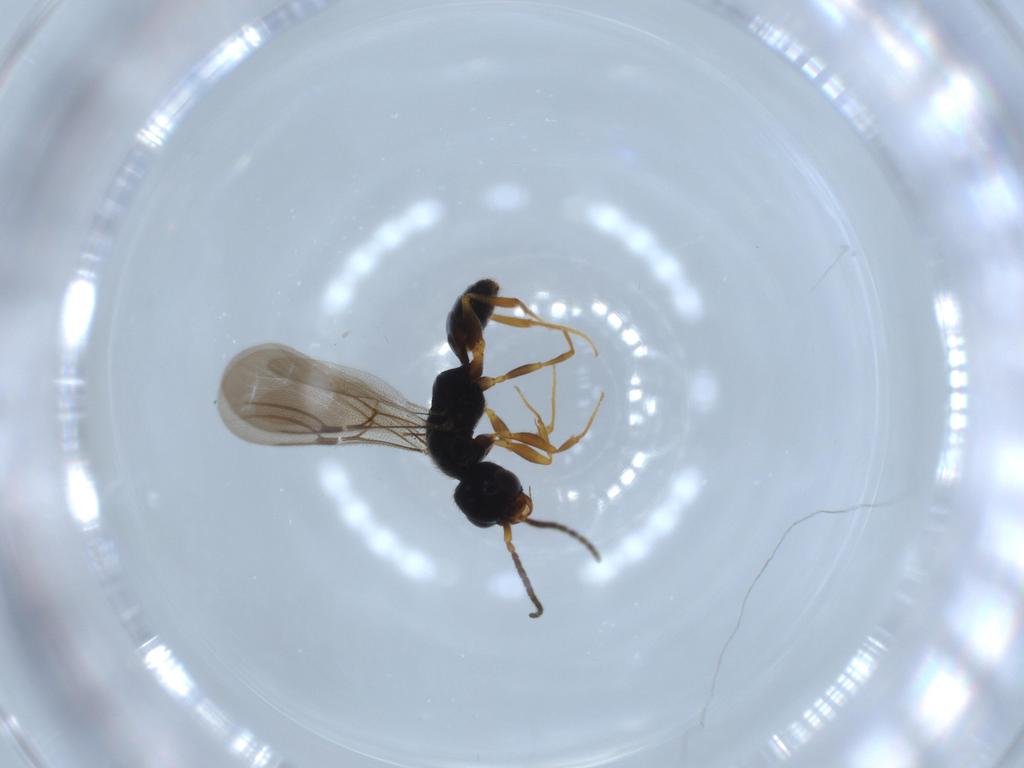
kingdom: Animalia
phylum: Arthropoda
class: Insecta
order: Hymenoptera
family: Bethylidae
